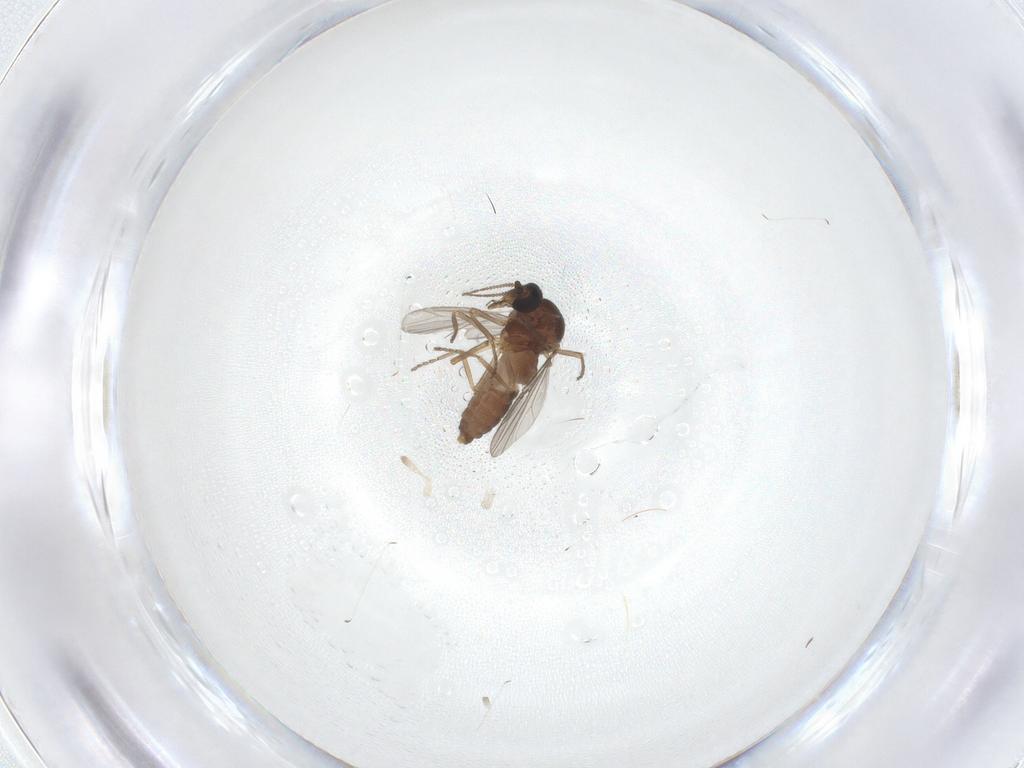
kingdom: Animalia
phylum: Arthropoda
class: Insecta
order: Diptera
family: Ceratopogonidae
